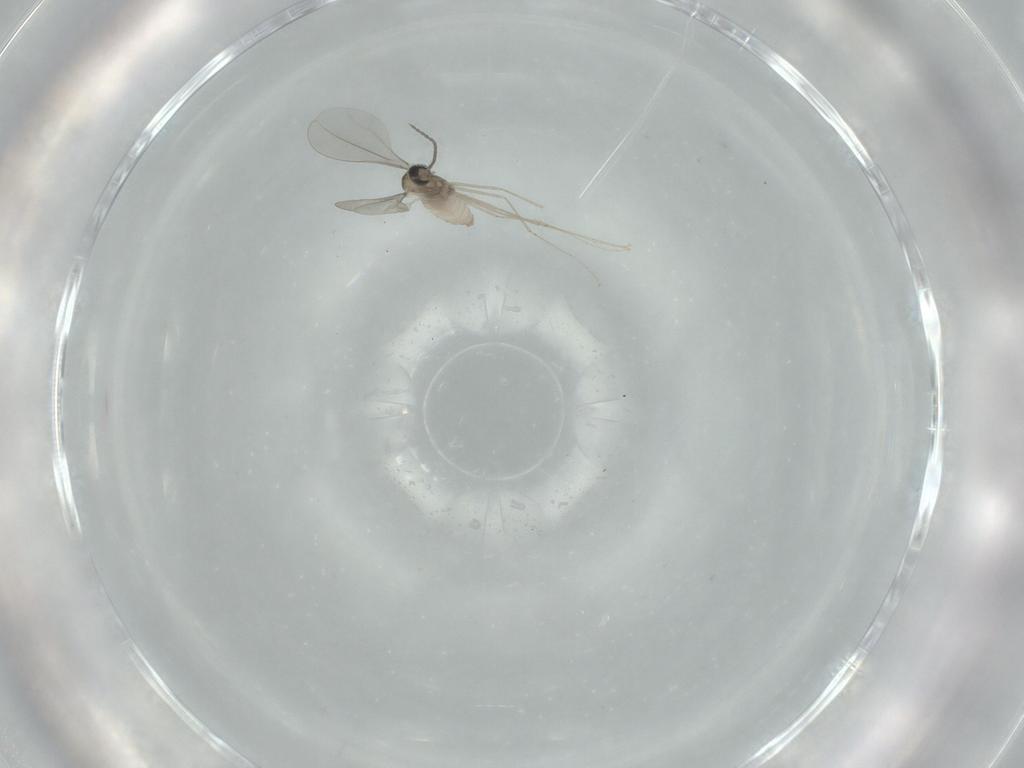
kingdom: Animalia
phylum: Arthropoda
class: Insecta
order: Diptera
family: Cecidomyiidae
